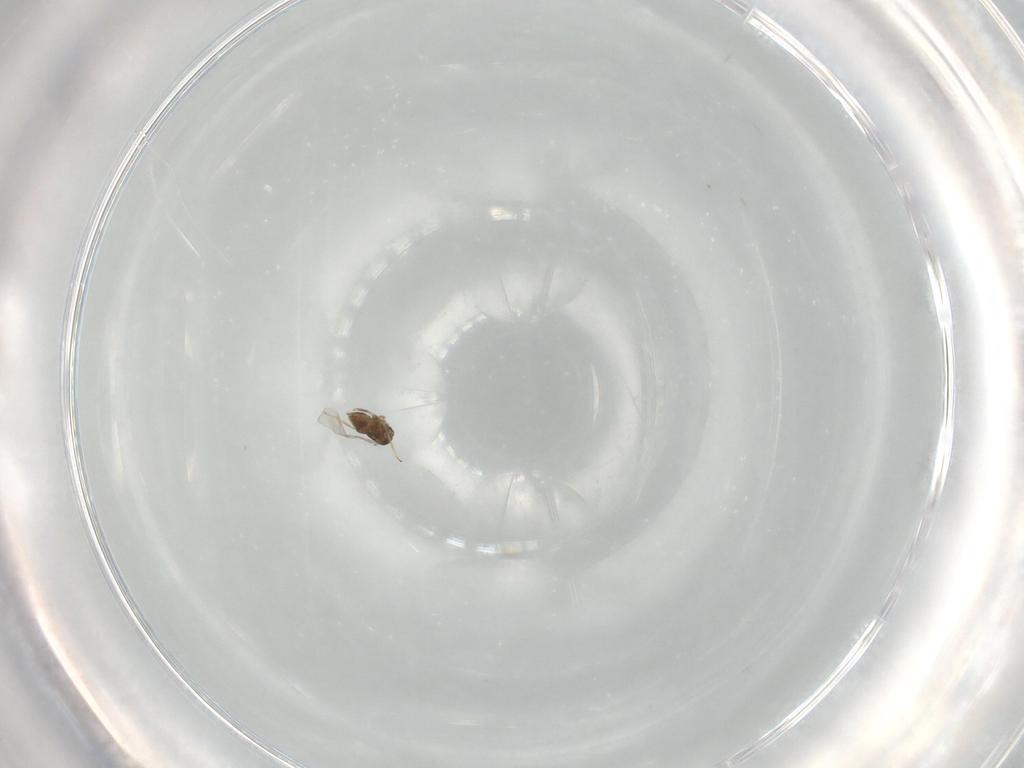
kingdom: Animalia
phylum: Arthropoda
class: Insecta
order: Hymenoptera
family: Encyrtidae
